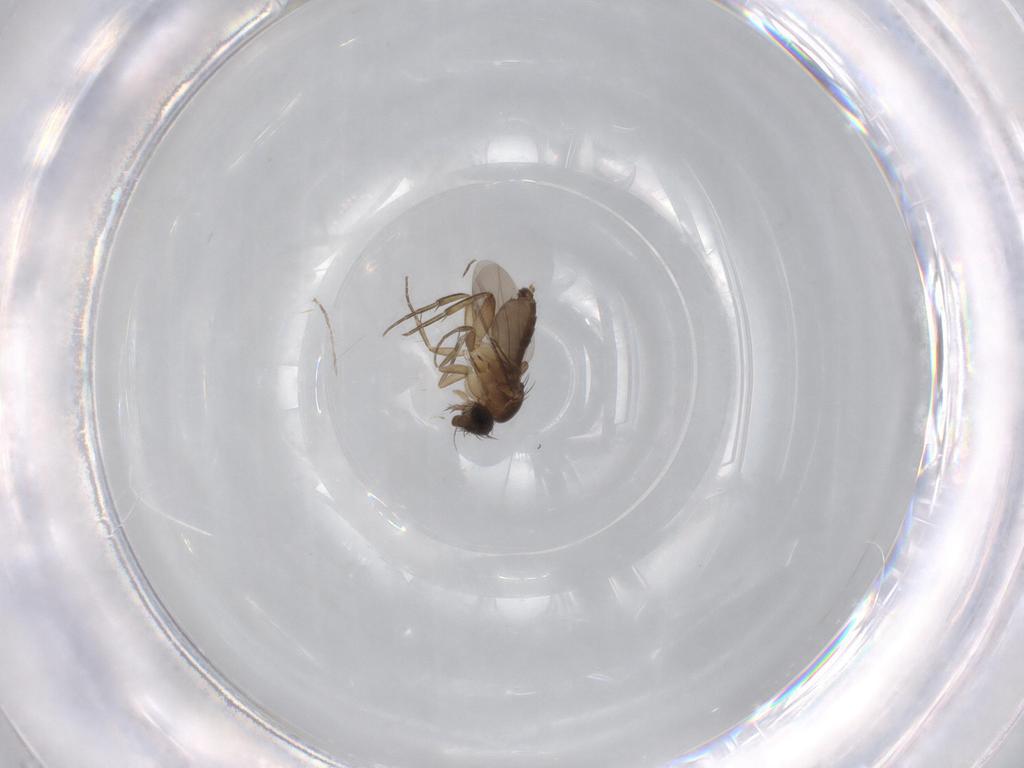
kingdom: Animalia
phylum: Arthropoda
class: Insecta
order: Diptera
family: Phoridae
